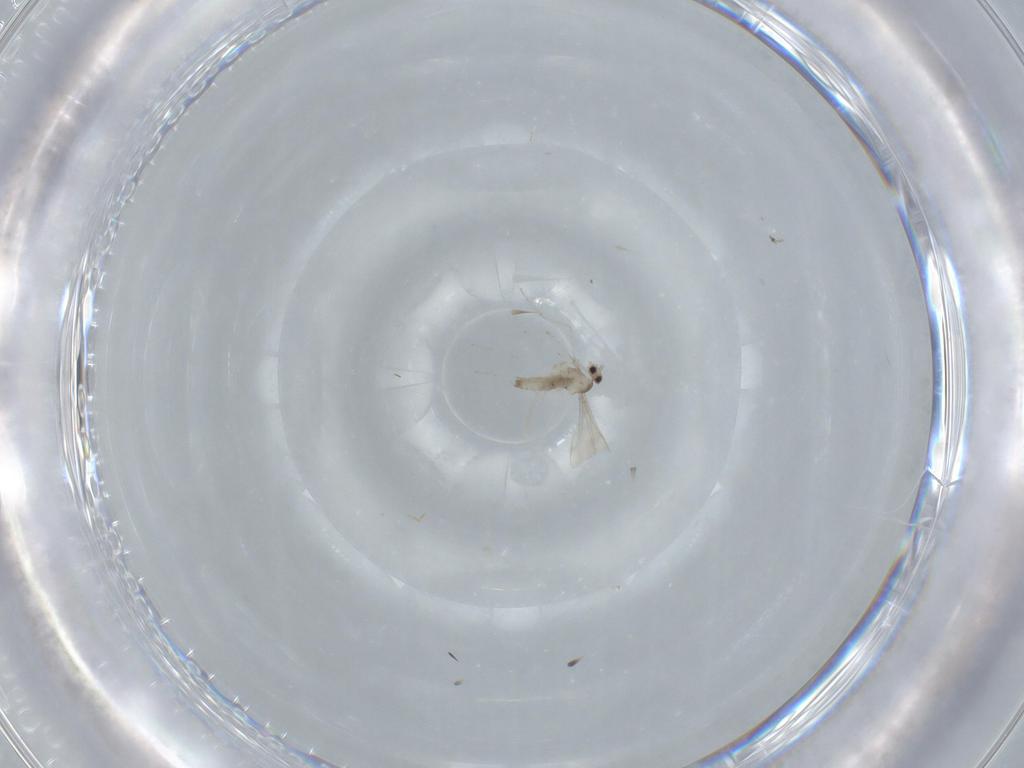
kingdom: Animalia
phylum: Arthropoda
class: Insecta
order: Diptera
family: Cecidomyiidae
